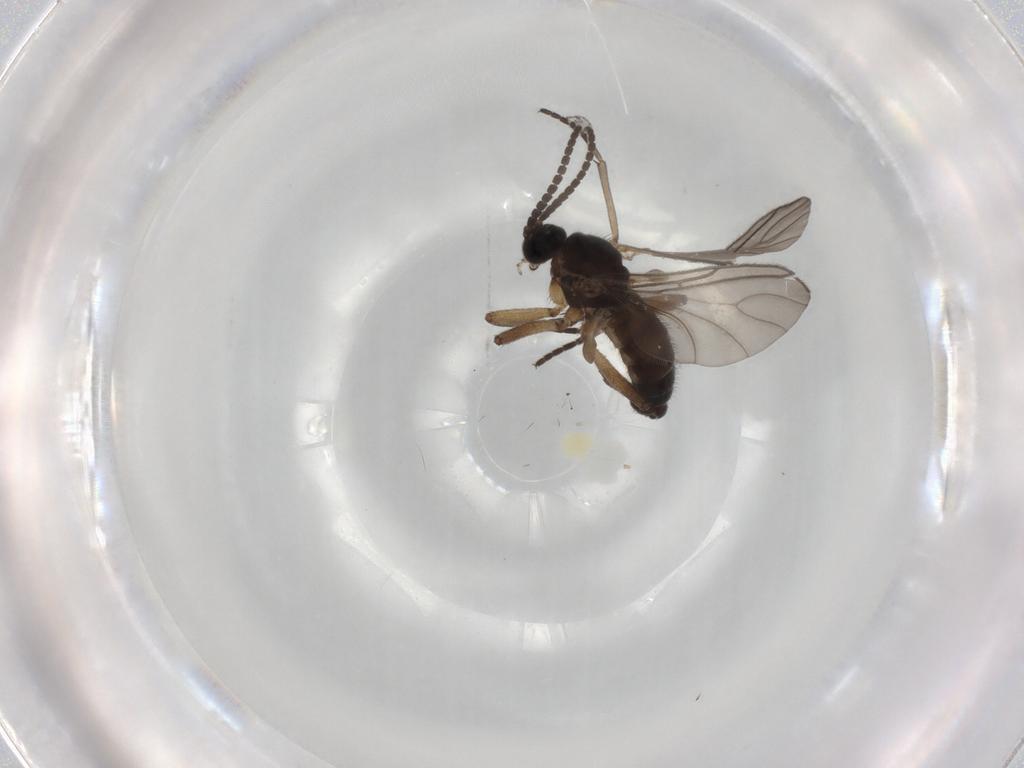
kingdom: Animalia
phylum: Arthropoda
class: Insecta
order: Diptera
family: Sciaridae
